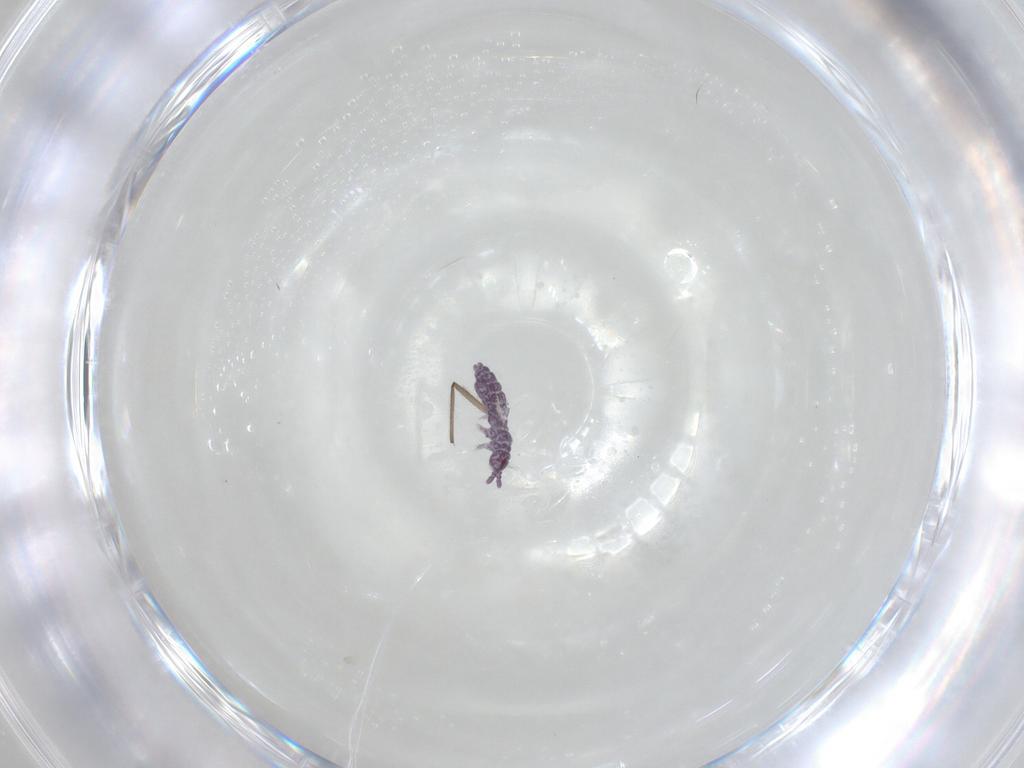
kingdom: Animalia
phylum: Arthropoda
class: Collembola
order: Poduromorpha
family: Brachystomellidae
